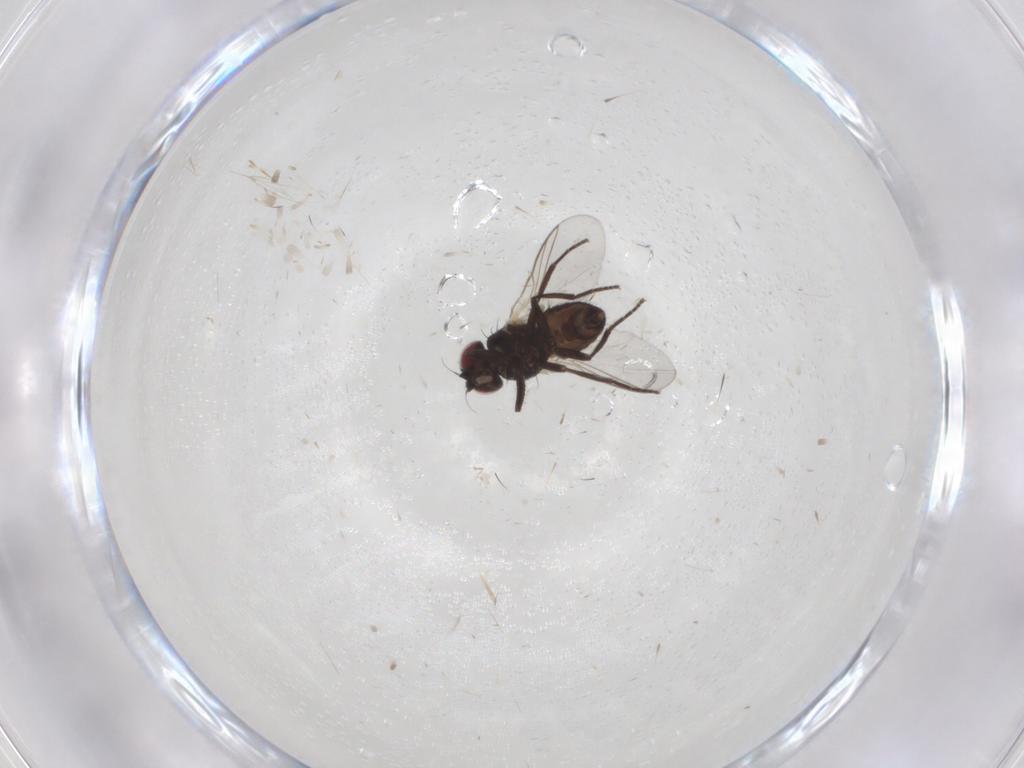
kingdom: Animalia
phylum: Arthropoda
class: Insecta
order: Diptera
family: Agromyzidae
